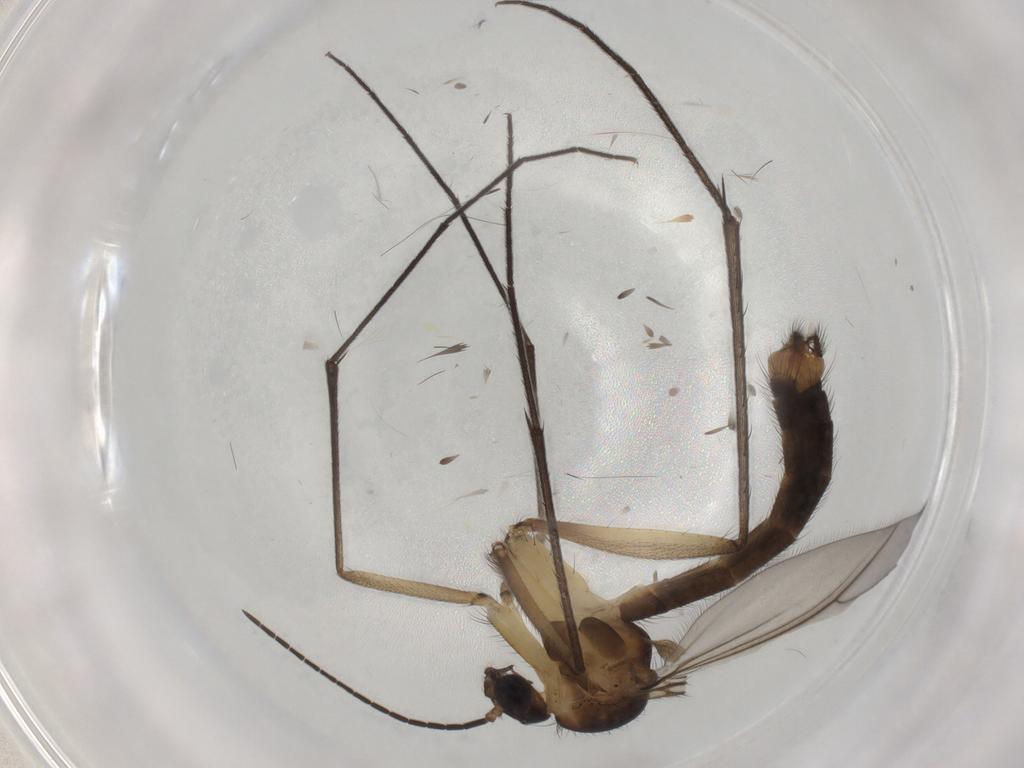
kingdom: Animalia
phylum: Arthropoda
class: Insecta
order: Diptera
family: Mycetophilidae
